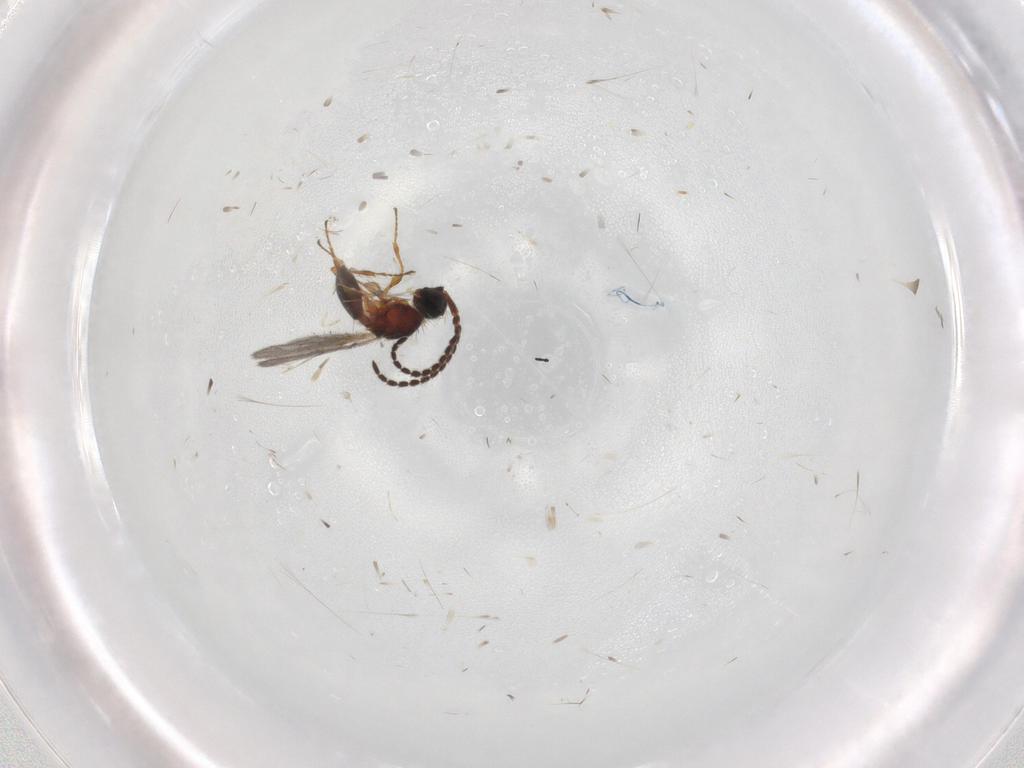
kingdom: Animalia
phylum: Arthropoda
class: Insecta
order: Hymenoptera
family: Diapriidae
